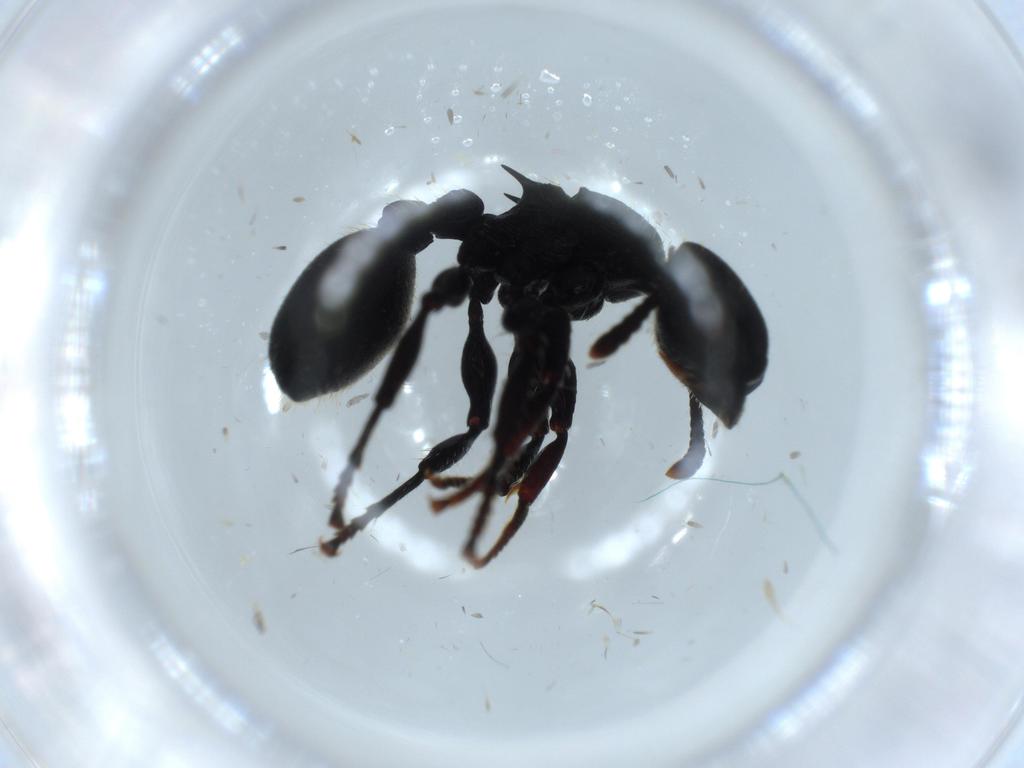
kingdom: Animalia
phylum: Arthropoda
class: Insecta
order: Hymenoptera
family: Formicidae
